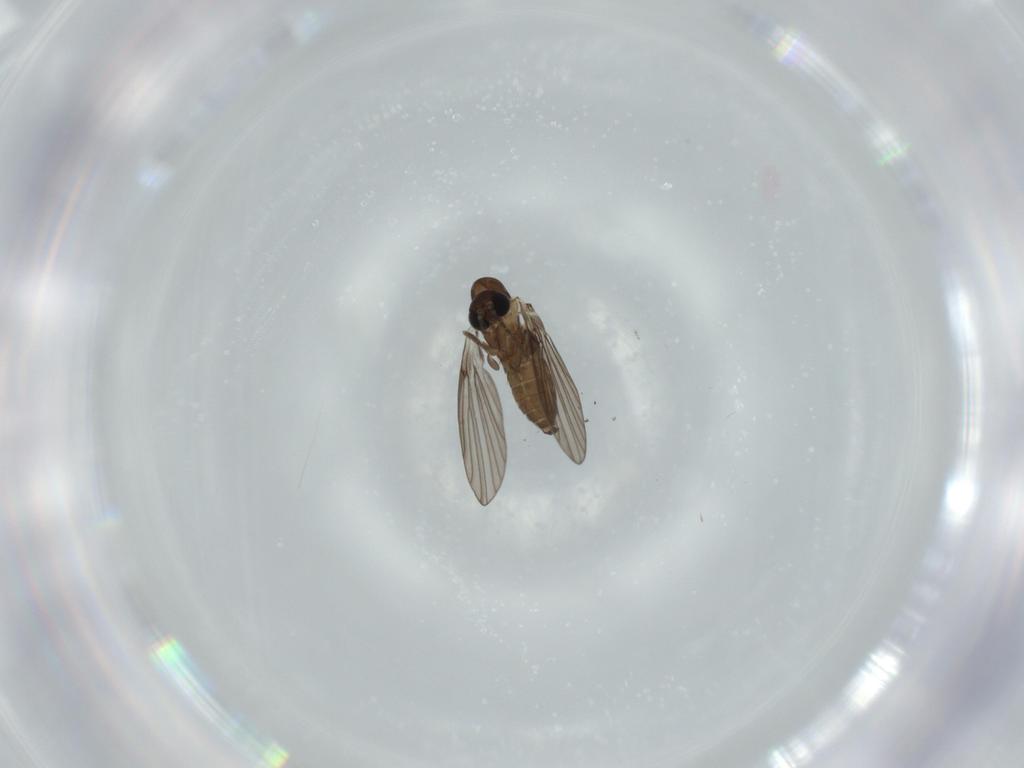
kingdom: Animalia
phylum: Arthropoda
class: Insecta
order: Diptera
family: Psychodidae
